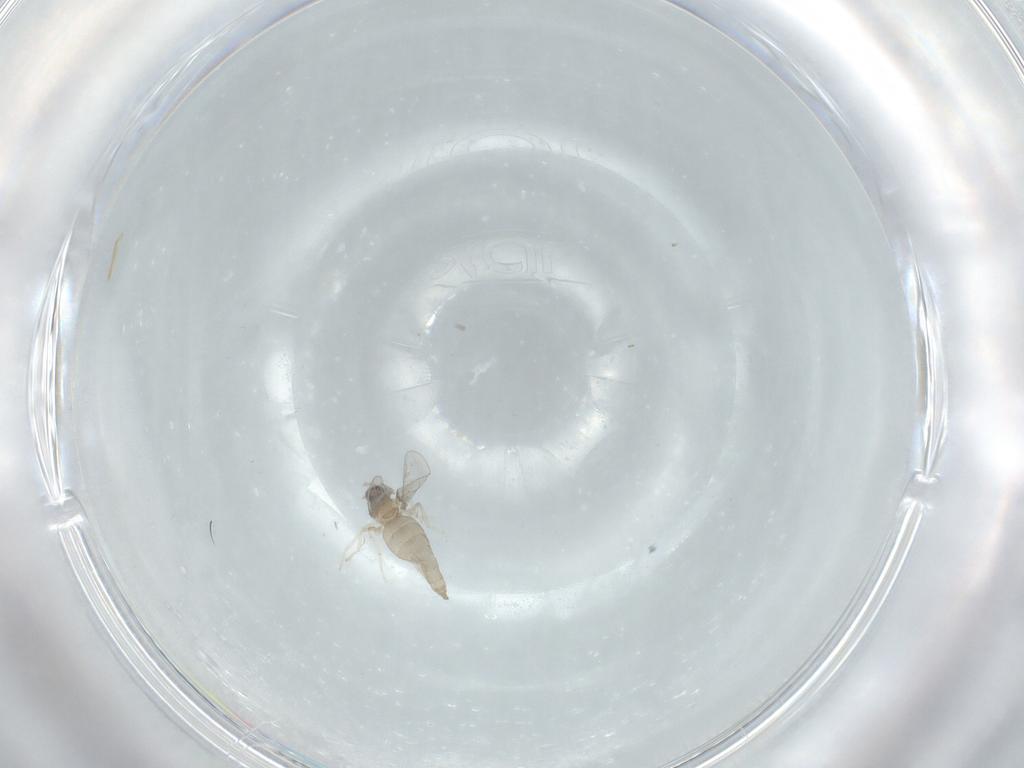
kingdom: Animalia
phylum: Arthropoda
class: Insecta
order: Diptera
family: Cecidomyiidae
